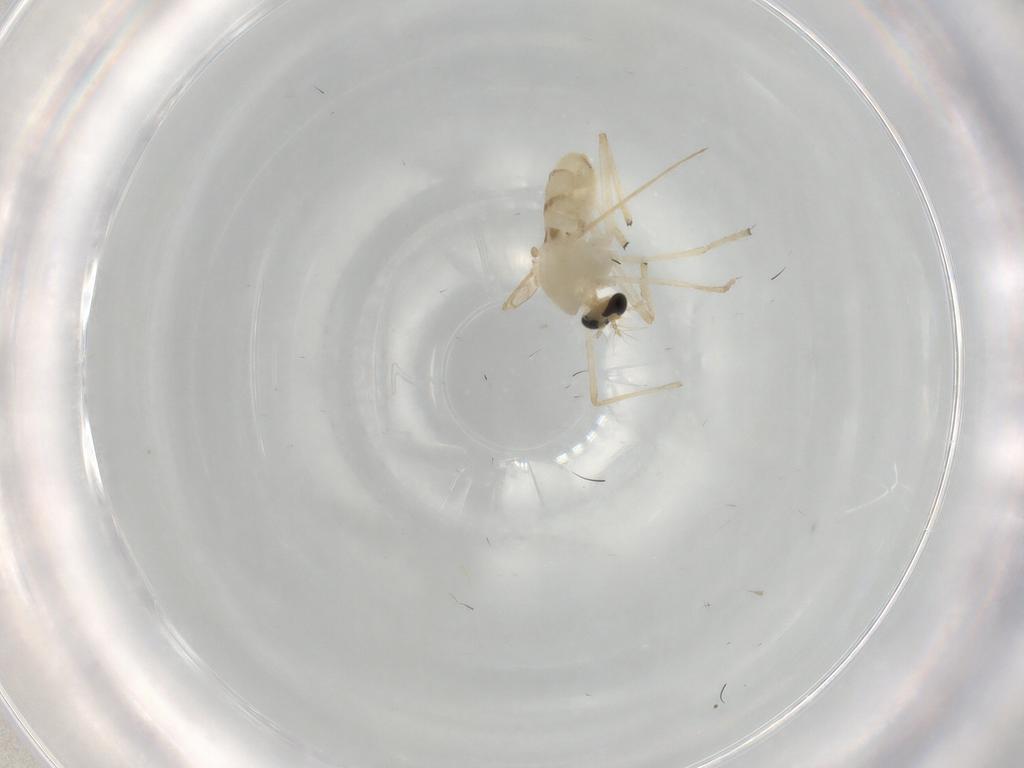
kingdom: Animalia
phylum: Arthropoda
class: Insecta
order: Diptera
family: Chironomidae
